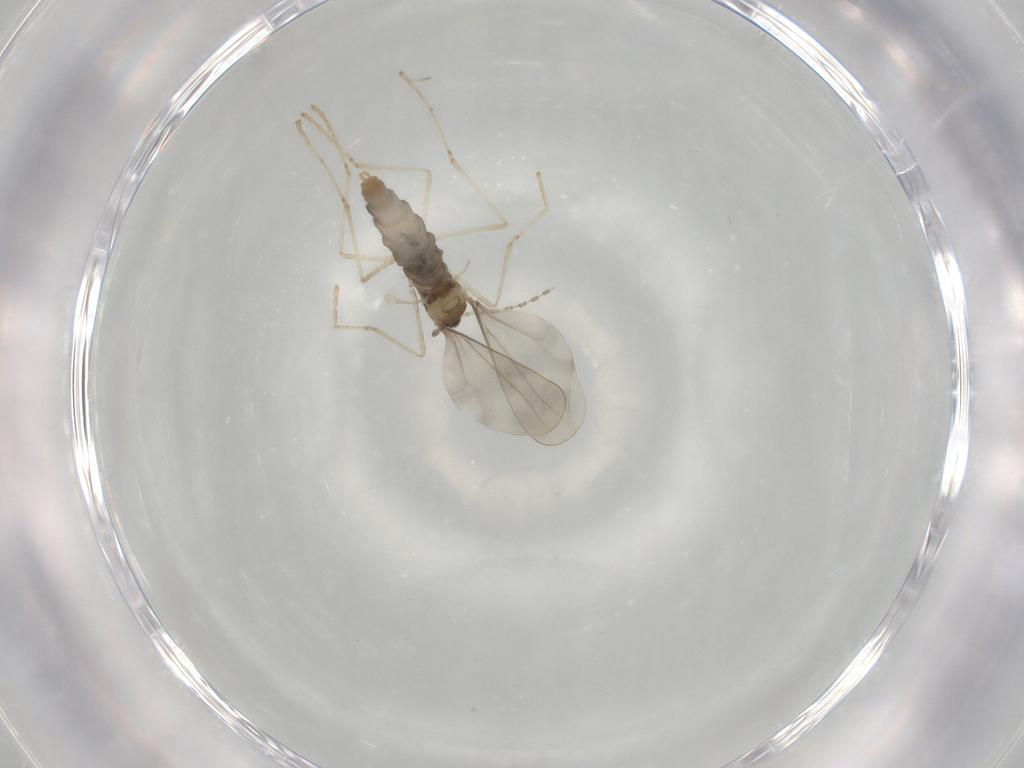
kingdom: Animalia
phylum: Arthropoda
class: Insecta
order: Diptera
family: Cecidomyiidae
